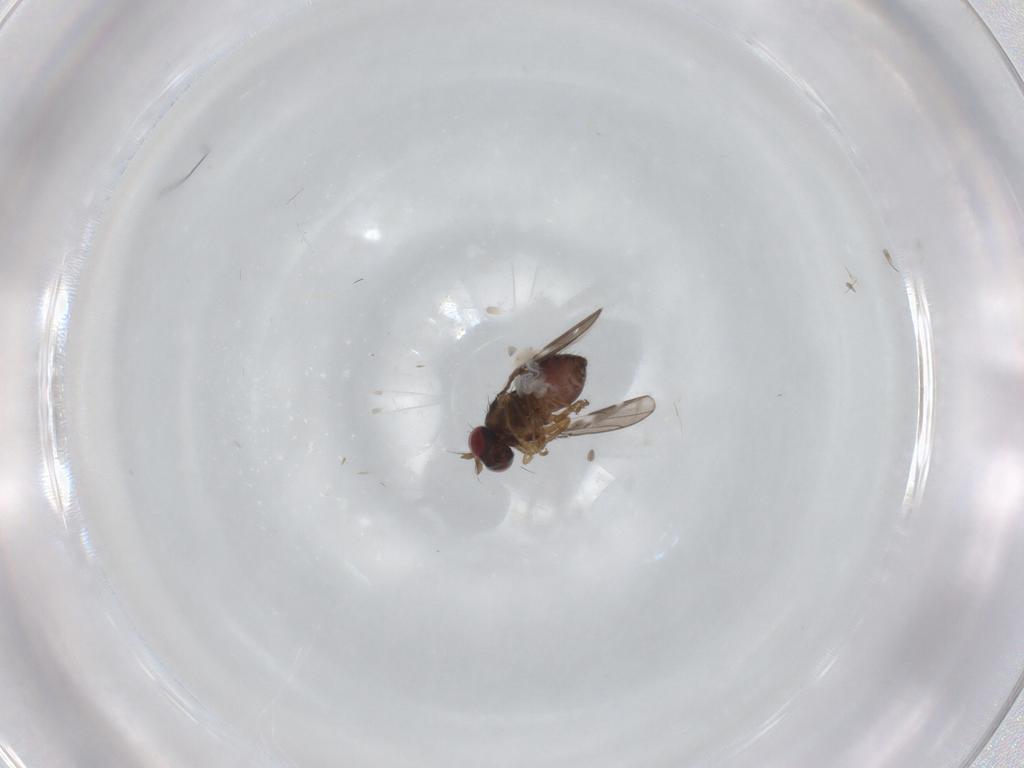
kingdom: Animalia
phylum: Arthropoda
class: Insecta
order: Diptera
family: Ephydridae
